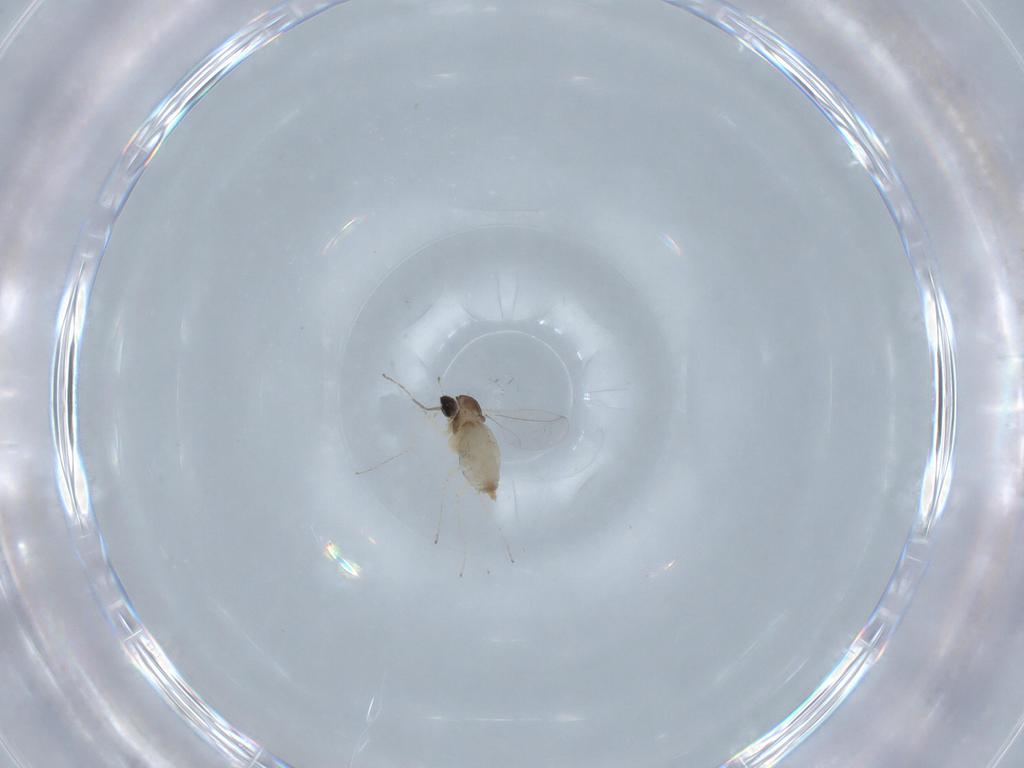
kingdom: Animalia
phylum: Arthropoda
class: Insecta
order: Diptera
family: Cecidomyiidae
